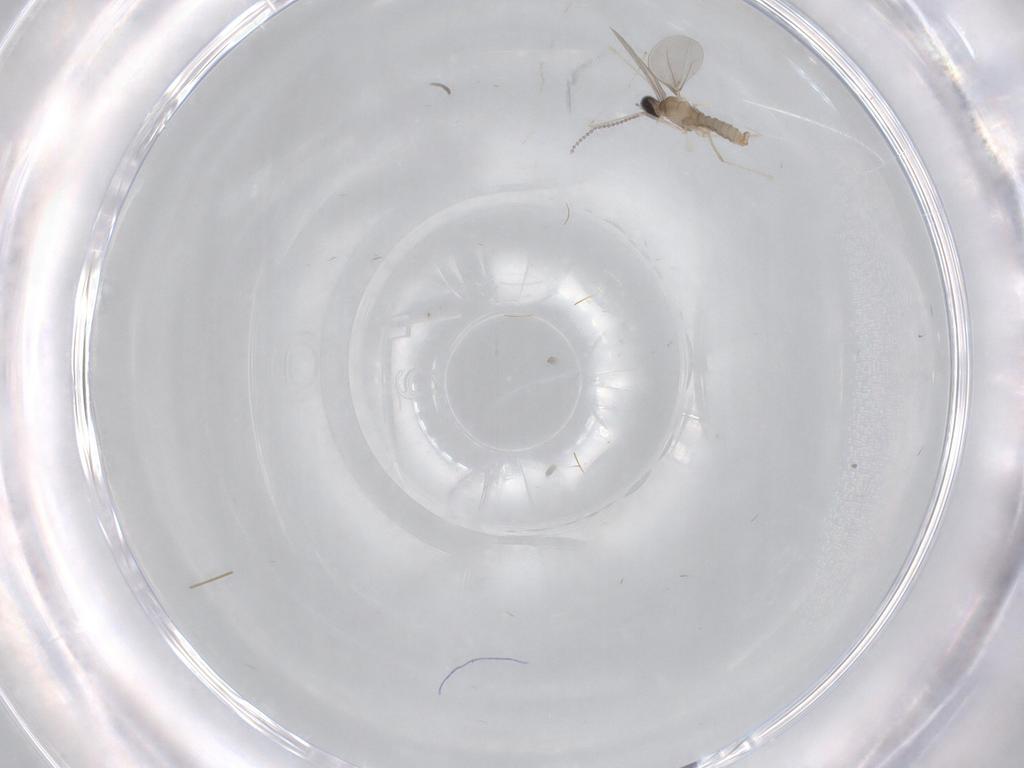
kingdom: Animalia
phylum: Arthropoda
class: Insecta
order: Diptera
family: Cecidomyiidae
